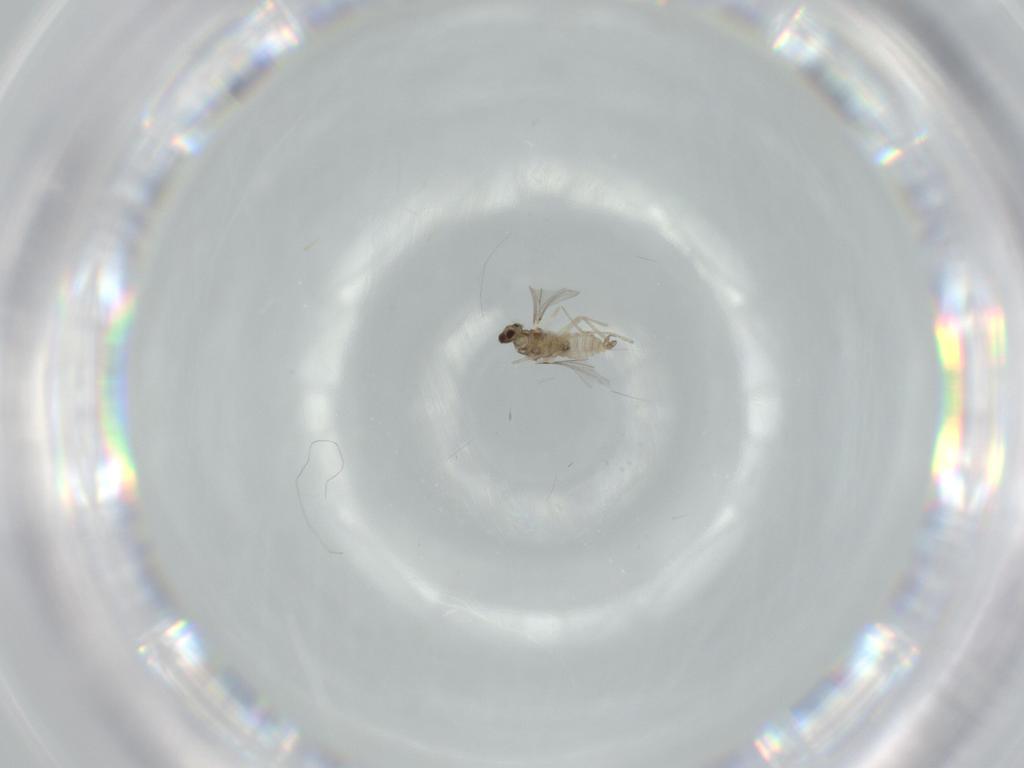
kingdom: Animalia
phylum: Arthropoda
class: Insecta
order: Diptera
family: Cecidomyiidae
